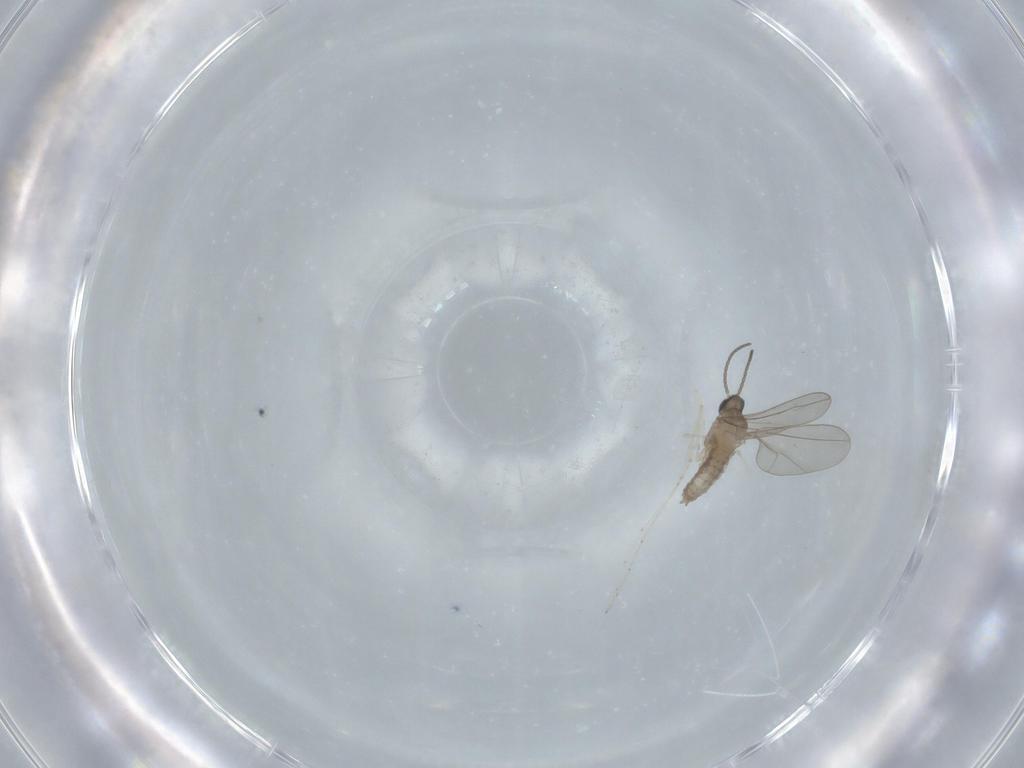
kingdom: Animalia
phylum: Arthropoda
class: Insecta
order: Diptera
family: Cecidomyiidae
